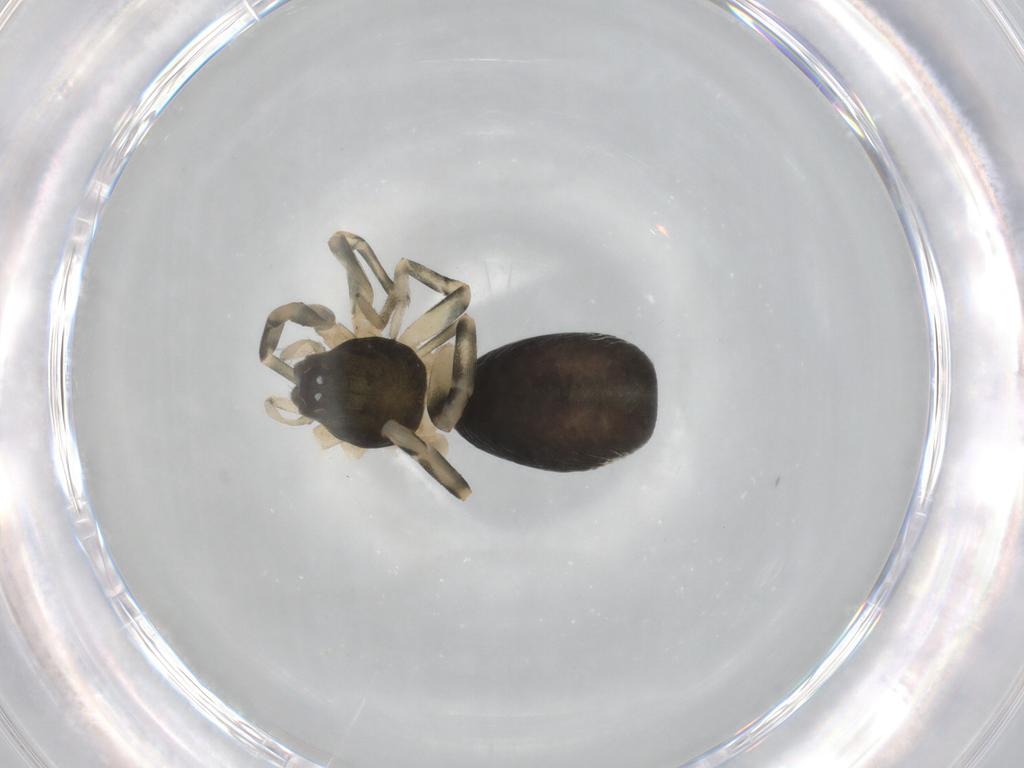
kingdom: Animalia
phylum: Arthropoda
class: Arachnida
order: Araneae
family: Trachelidae
